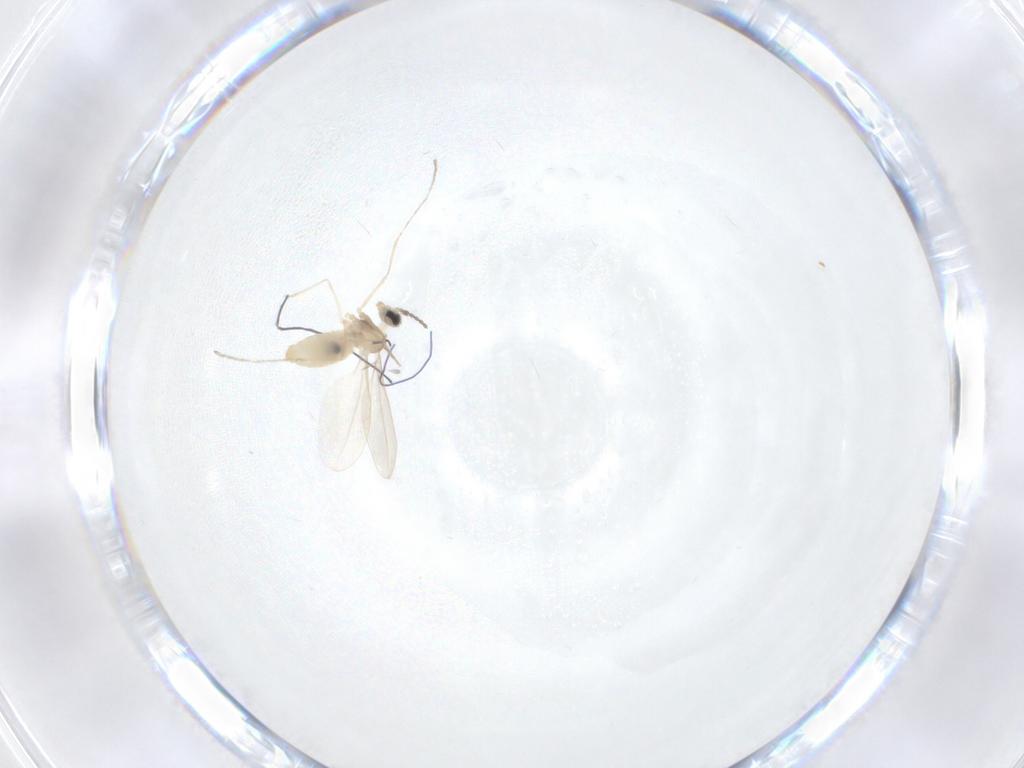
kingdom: Animalia
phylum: Arthropoda
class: Insecta
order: Diptera
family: Cecidomyiidae
